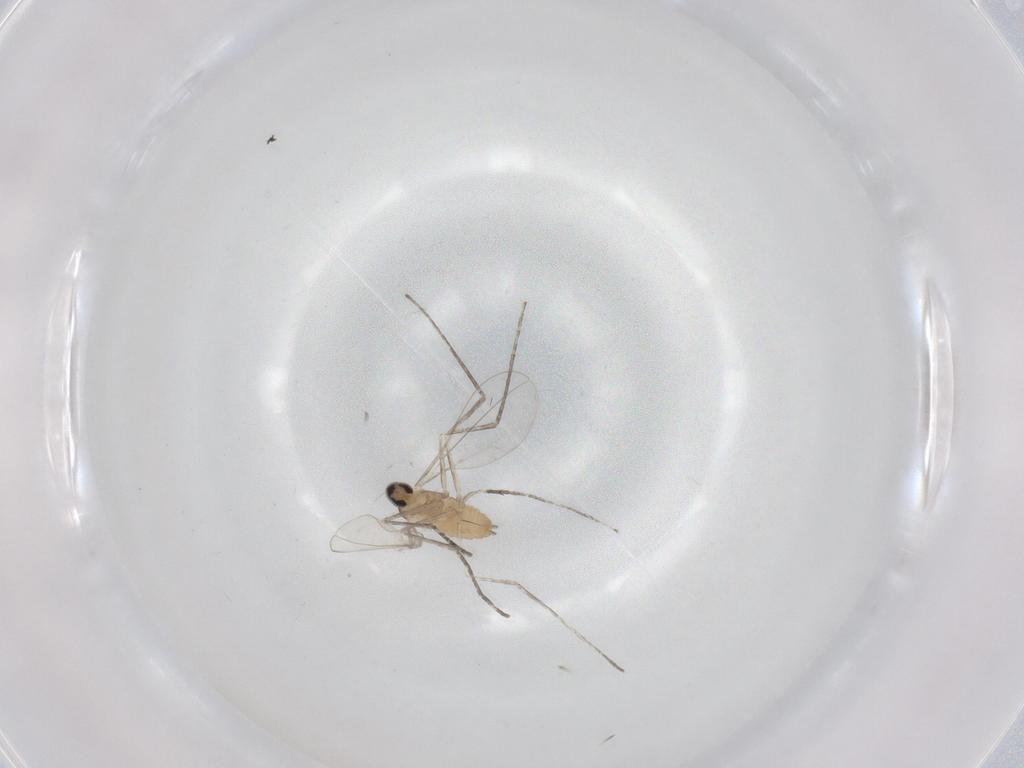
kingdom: Animalia
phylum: Arthropoda
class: Insecta
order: Diptera
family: Cecidomyiidae
